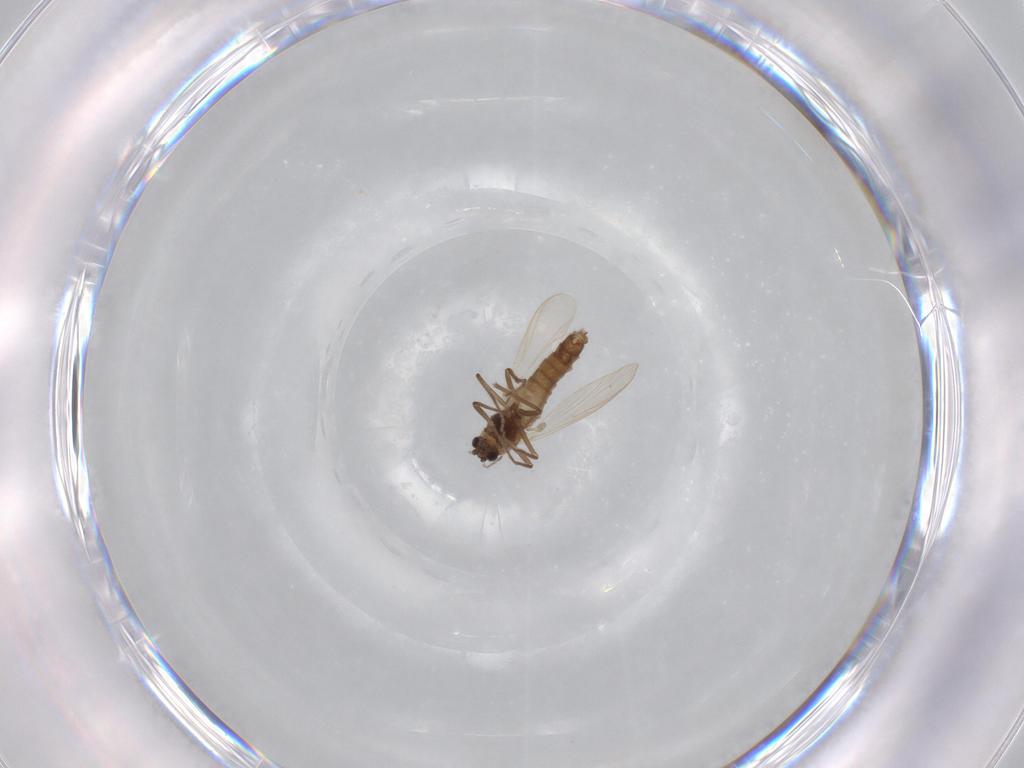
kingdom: Animalia
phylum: Arthropoda
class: Insecta
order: Diptera
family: Chironomidae
